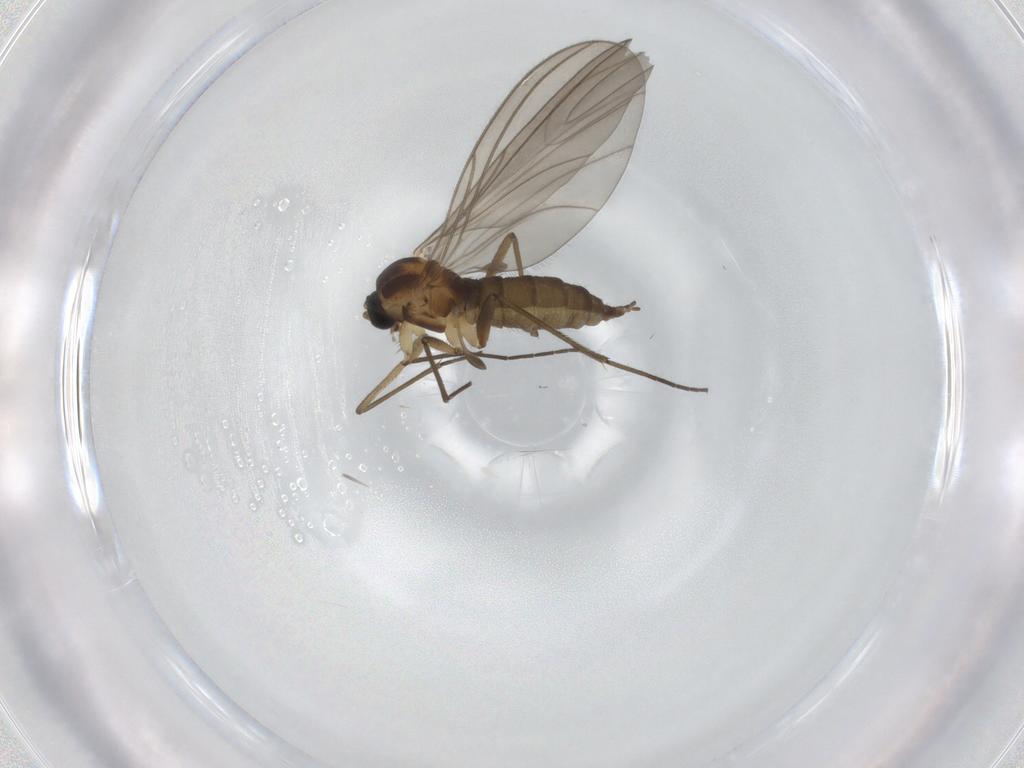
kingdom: Animalia
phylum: Arthropoda
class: Insecta
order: Diptera
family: Sciaridae
